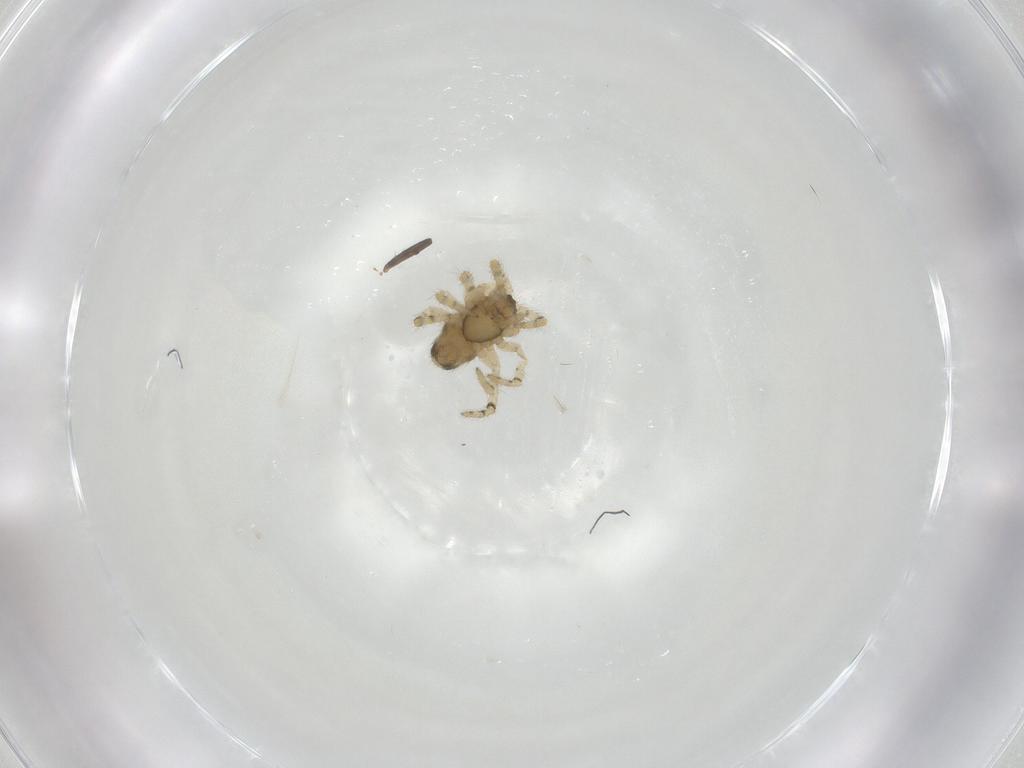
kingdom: Animalia
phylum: Arthropoda
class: Arachnida
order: Araneae
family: Theridiidae
